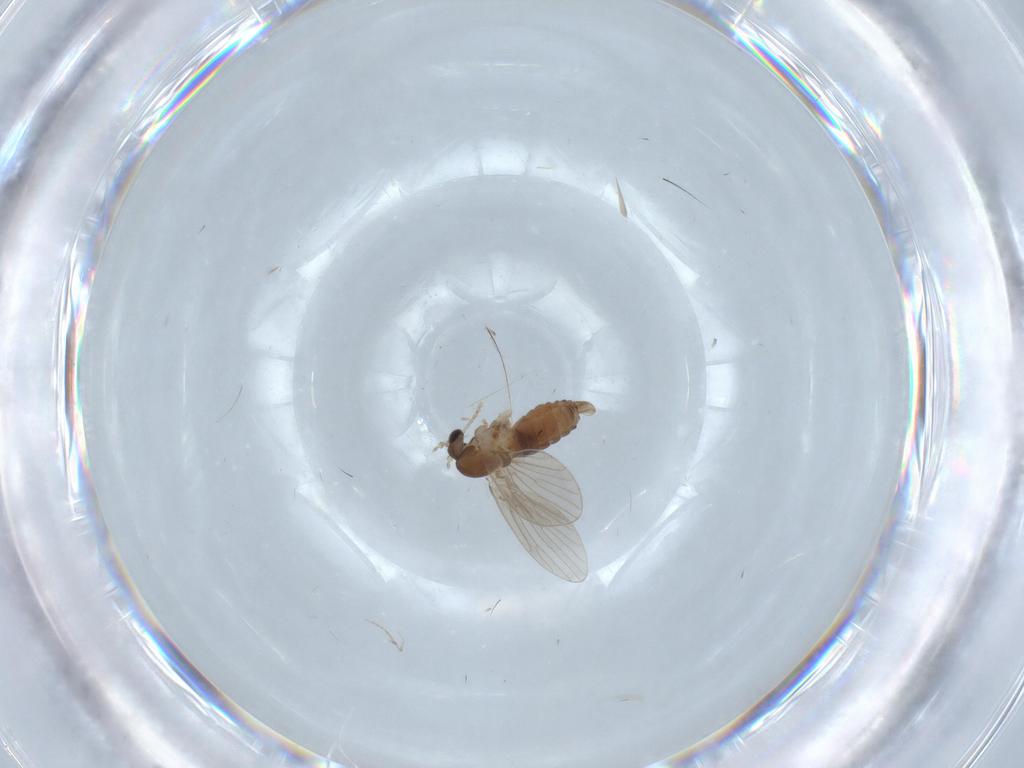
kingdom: Animalia
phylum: Arthropoda
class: Insecta
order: Diptera
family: Psychodidae
